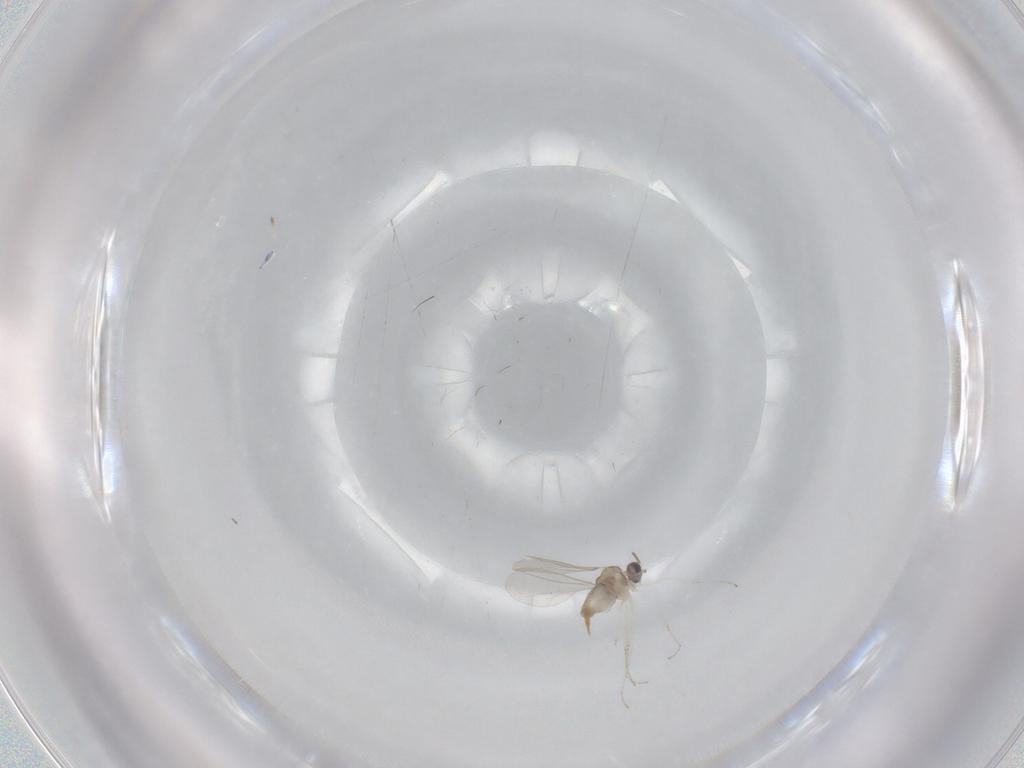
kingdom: Animalia
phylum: Arthropoda
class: Insecta
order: Diptera
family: Cecidomyiidae
